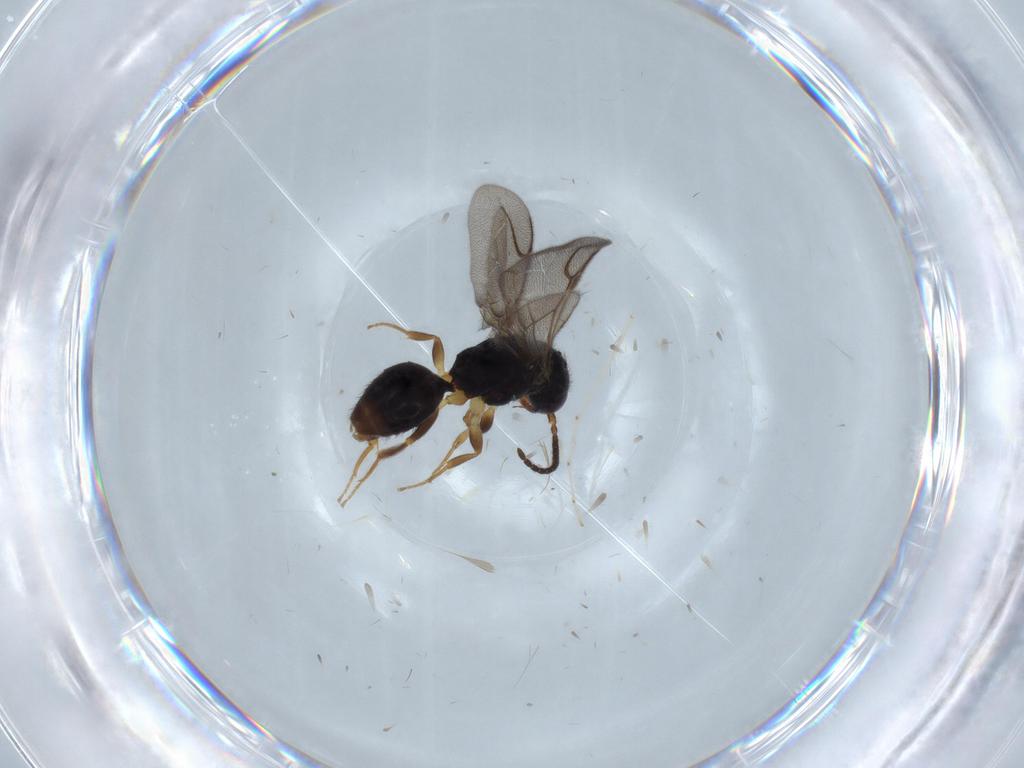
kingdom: Animalia
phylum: Arthropoda
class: Insecta
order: Hymenoptera
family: Bethylidae
